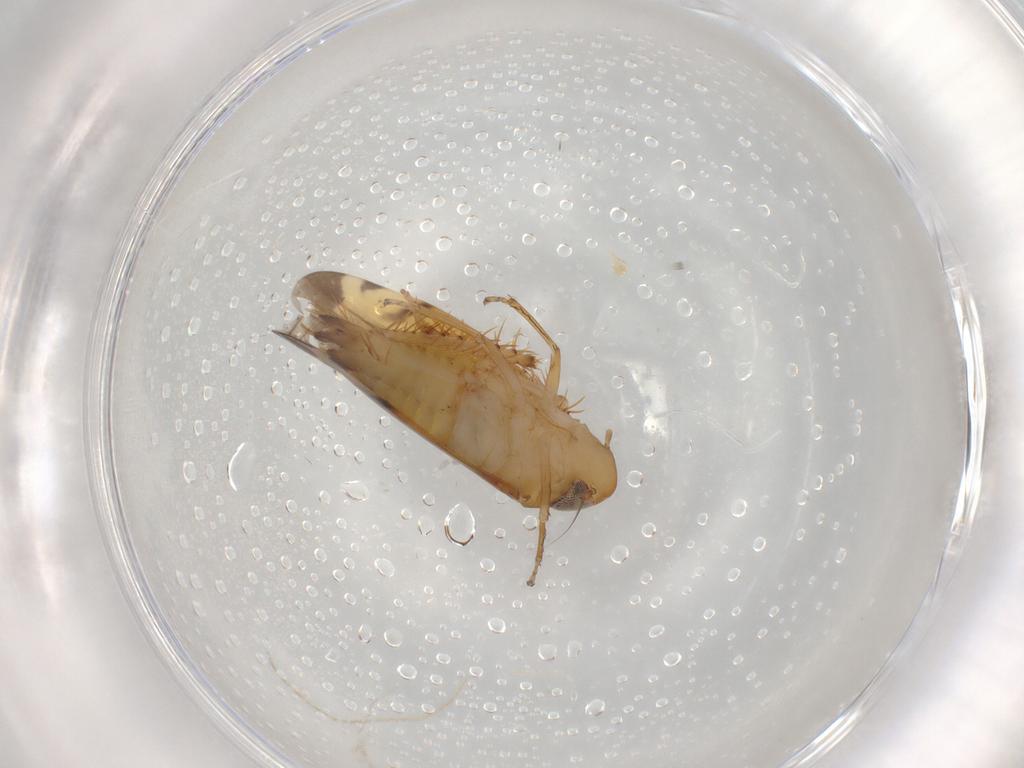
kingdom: Animalia
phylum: Arthropoda
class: Insecta
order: Hemiptera
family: Cicadellidae
